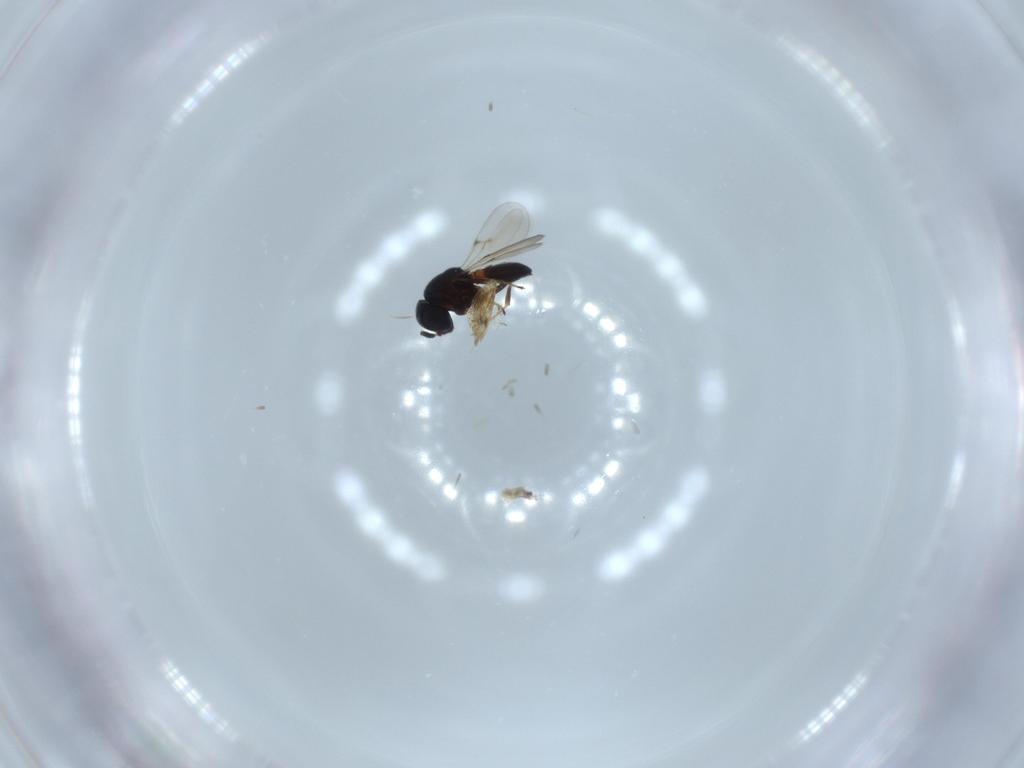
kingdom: Animalia
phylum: Arthropoda
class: Insecta
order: Hymenoptera
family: Scelionidae
